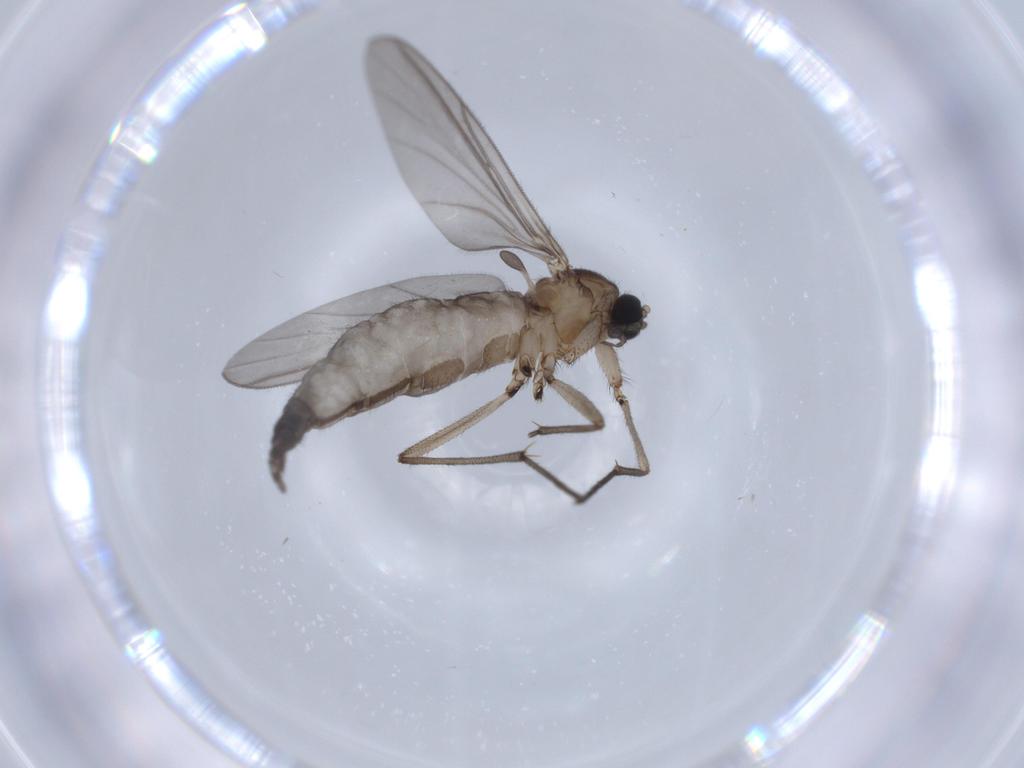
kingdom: Animalia
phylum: Arthropoda
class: Insecta
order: Diptera
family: Sciaridae
